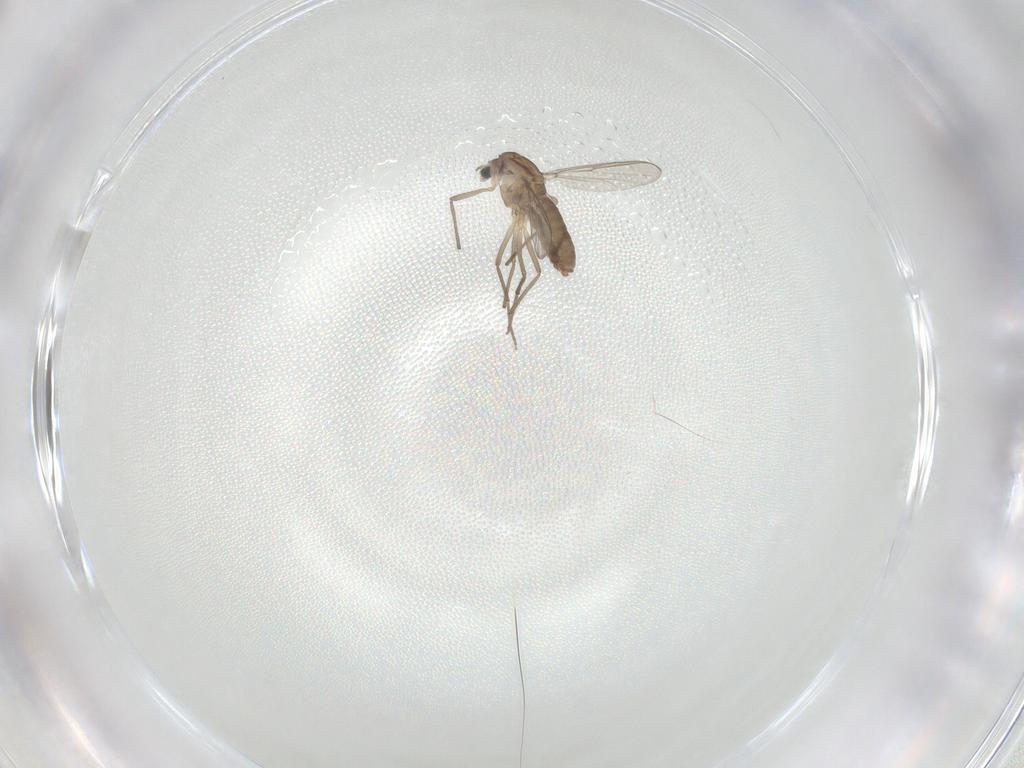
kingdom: Animalia
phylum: Arthropoda
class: Insecta
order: Diptera
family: Chironomidae
